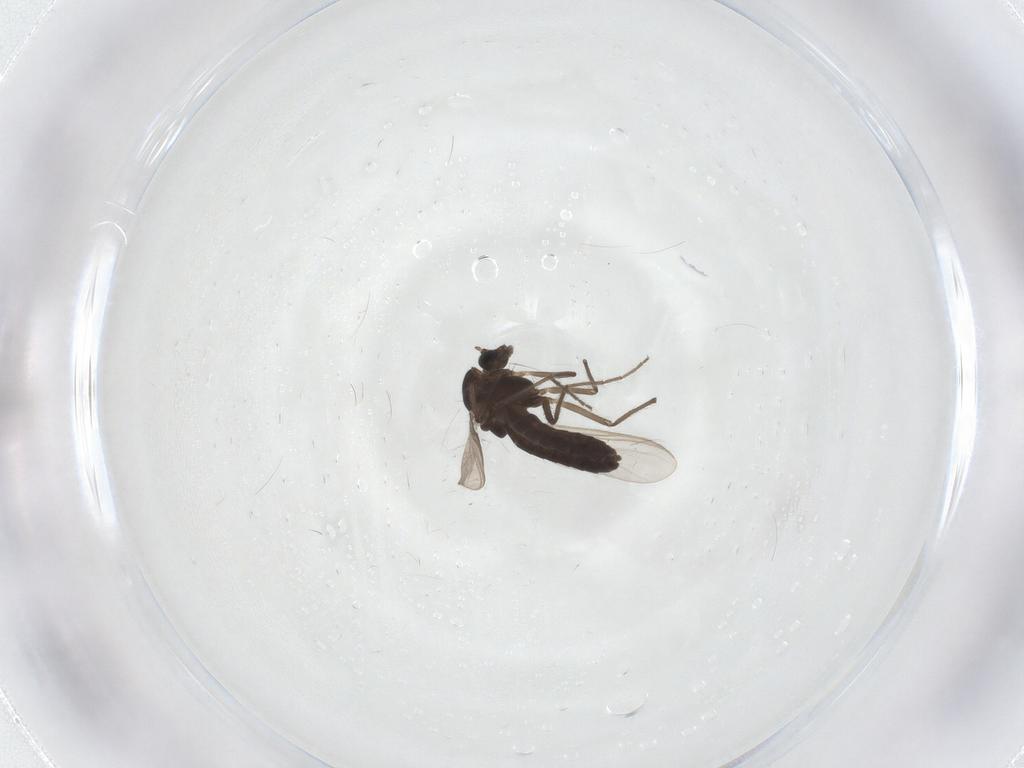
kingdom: Animalia
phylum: Arthropoda
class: Insecta
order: Diptera
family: Chironomidae
